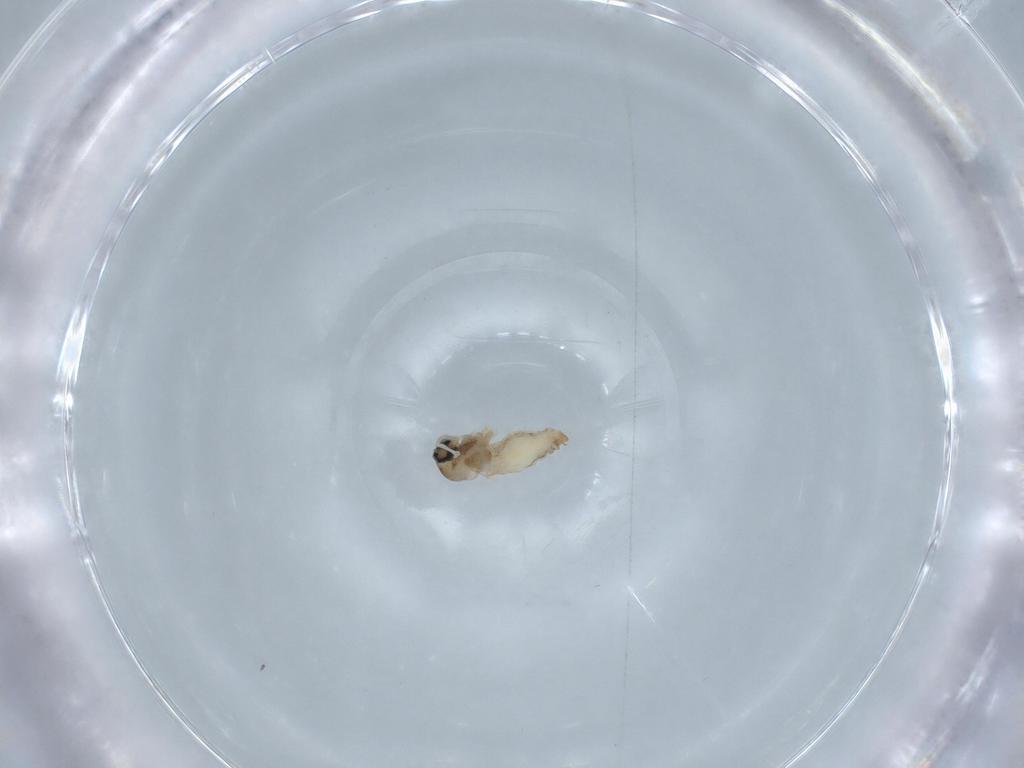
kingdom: Animalia
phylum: Arthropoda
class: Insecta
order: Diptera
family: Cecidomyiidae
